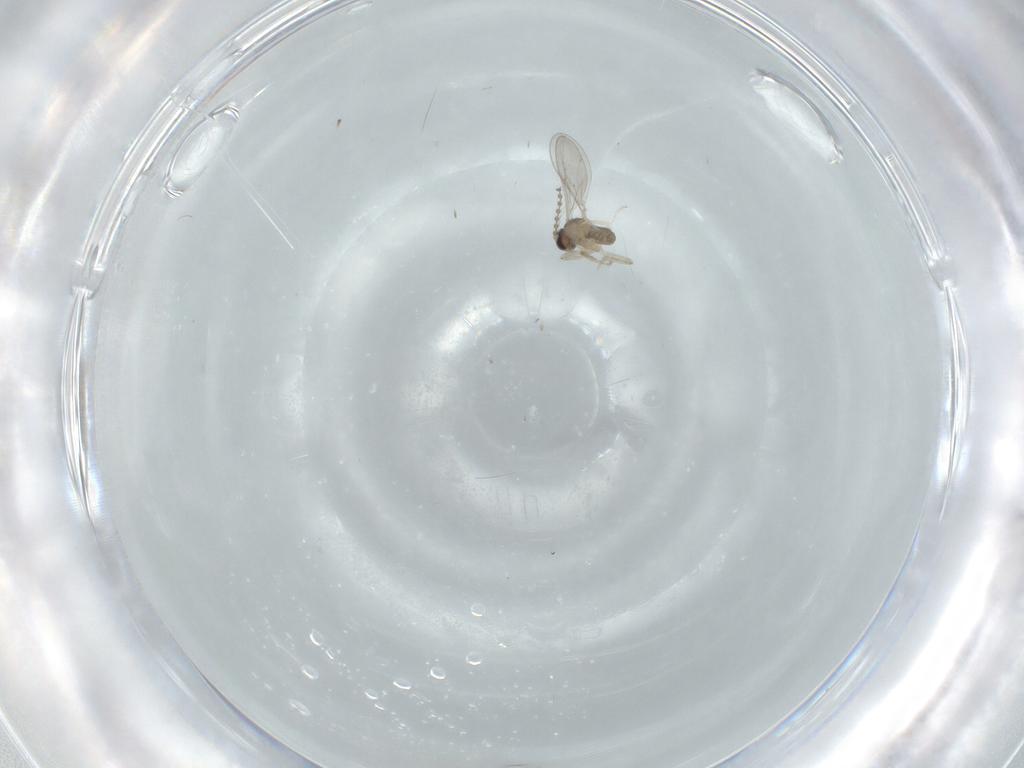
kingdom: Animalia
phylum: Arthropoda
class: Insecta
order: Diptera
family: Cecidomyiidae
